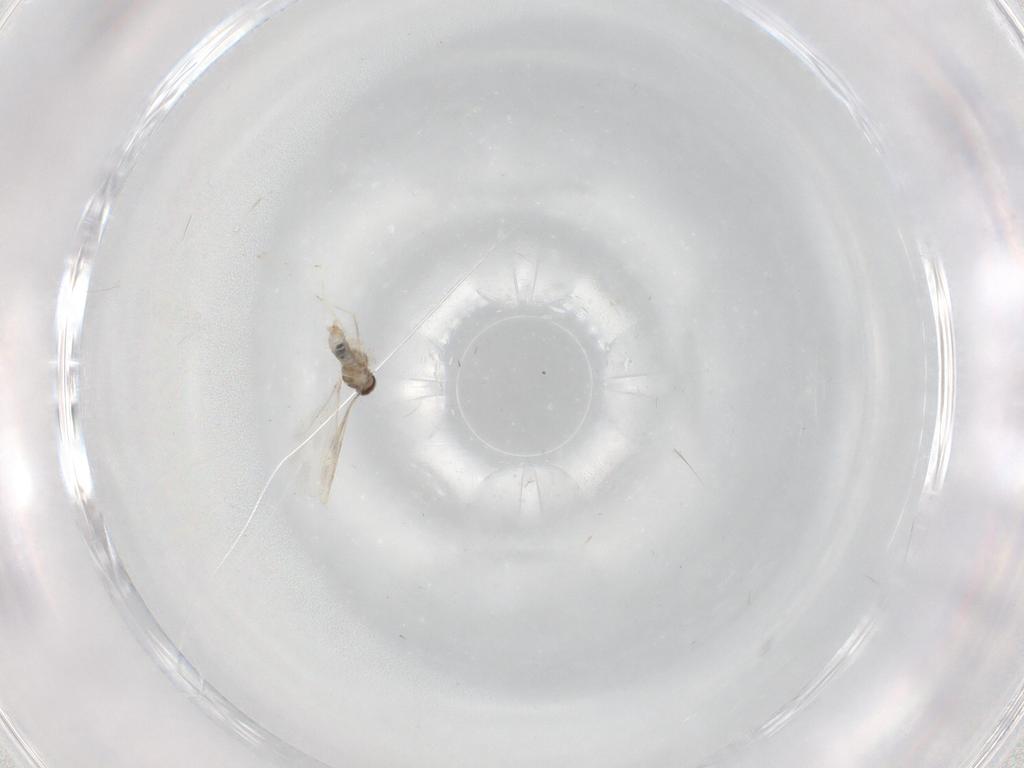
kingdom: Animalia
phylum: Arthropoda
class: Insecta
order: Diptera
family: Cecidomyiidae
